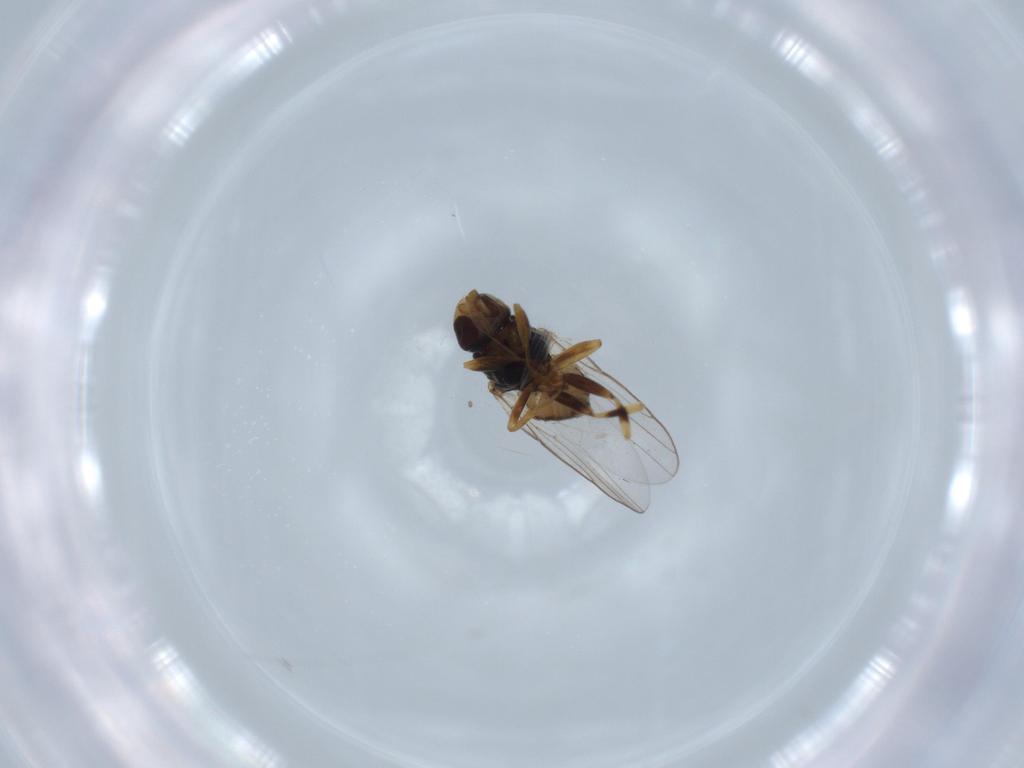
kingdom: Animalia
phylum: Arthropoda
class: Insecta
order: Diptera
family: Chloropidae
